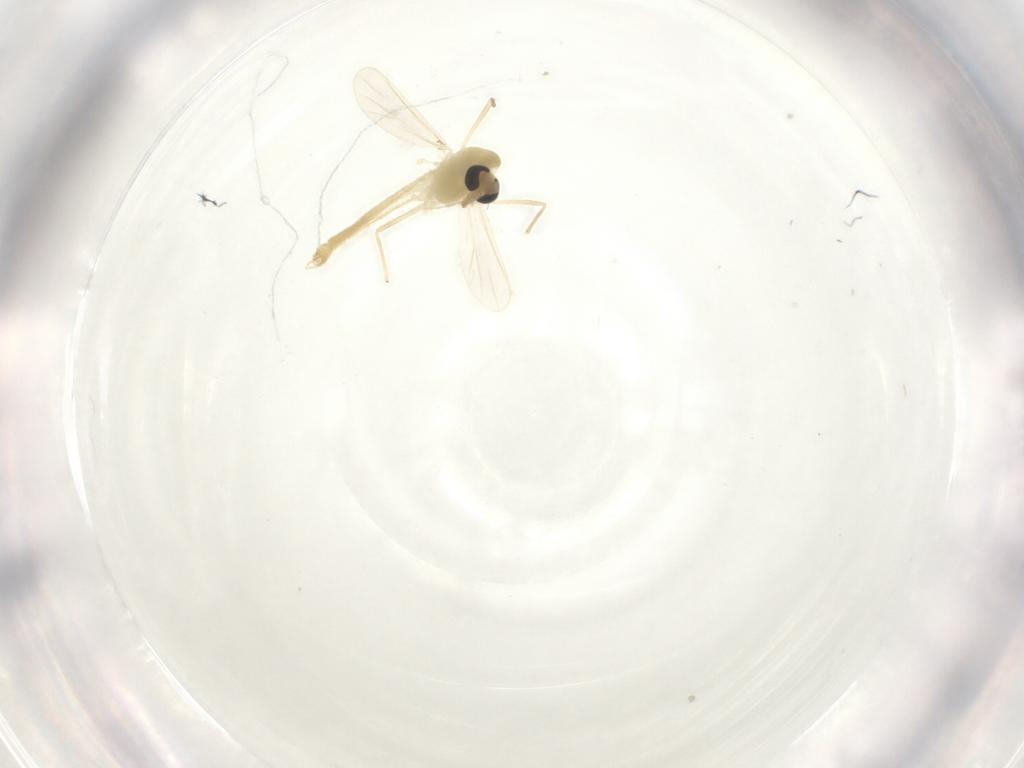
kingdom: Animalia
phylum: Arthropoda
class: Insecta
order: Diptera
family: Chironomidae
